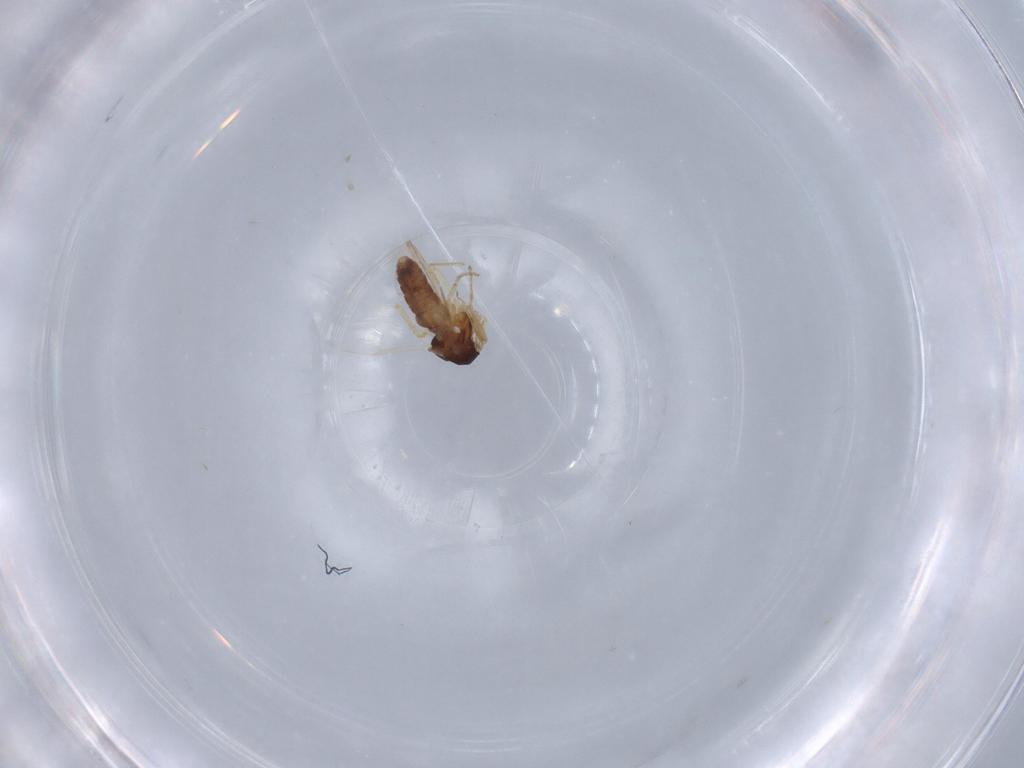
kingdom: Animalia
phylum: Arthropoda
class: Insecta
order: Diptera
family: Ceratopogonidae
